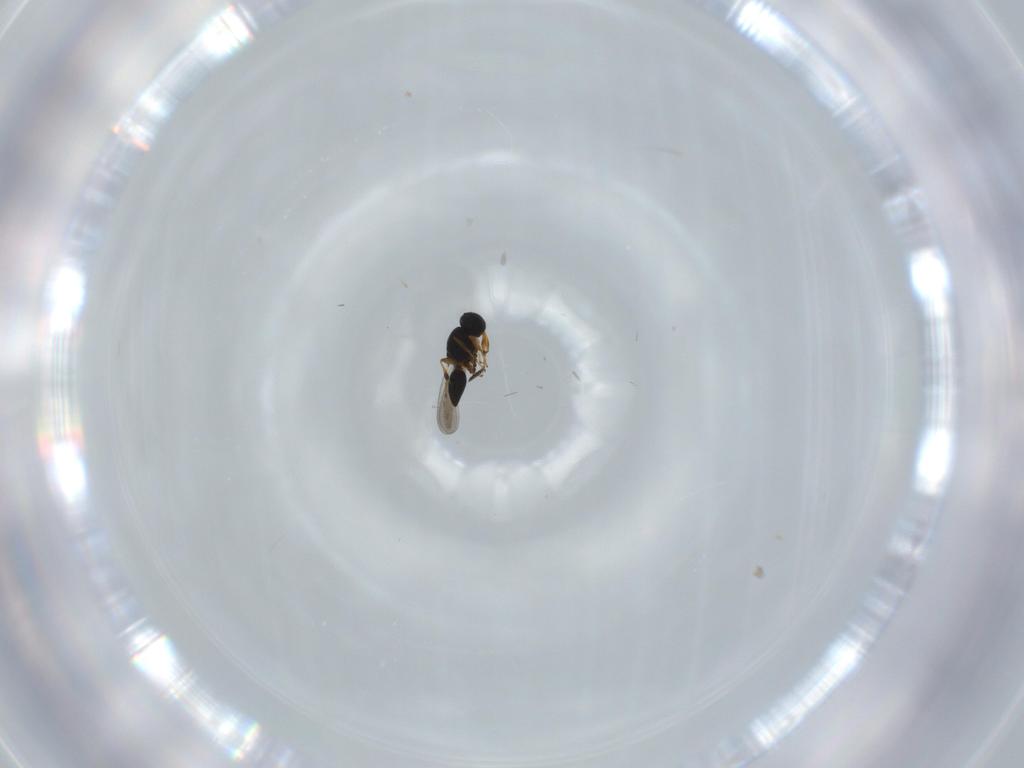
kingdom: Animalia
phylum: Arthropoda
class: Insecta
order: Hymenoptera
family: Platygastridae
